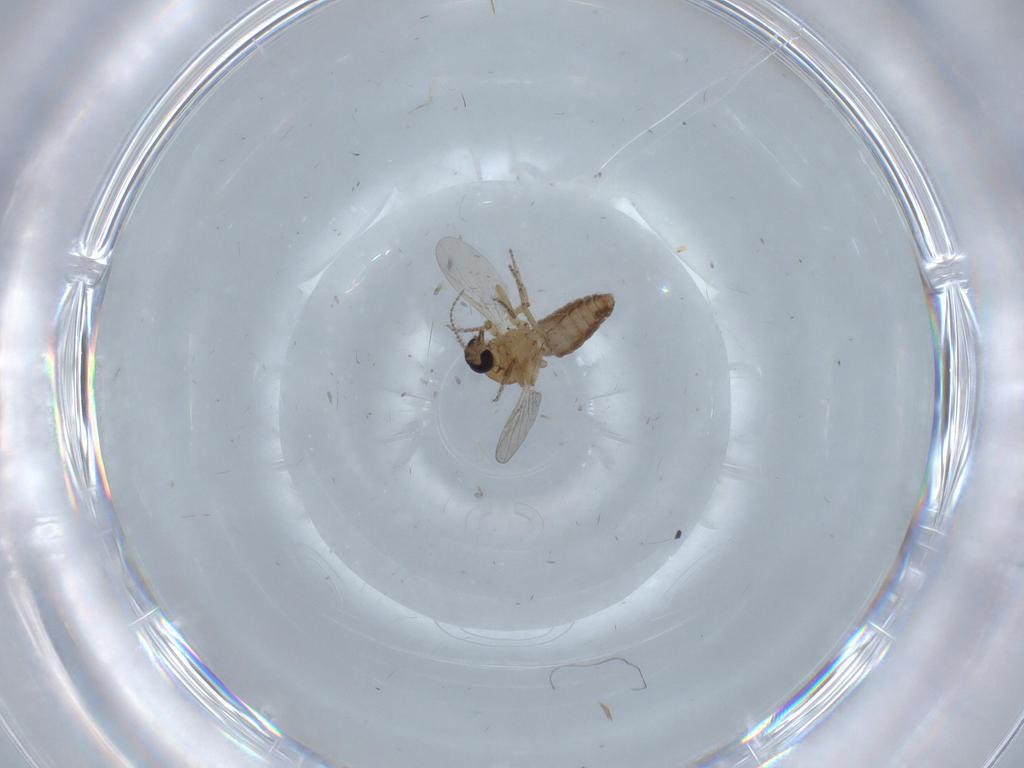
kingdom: Animalia
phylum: Arthropoda
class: Insecta
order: Diptera
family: Ceratopogonidae
